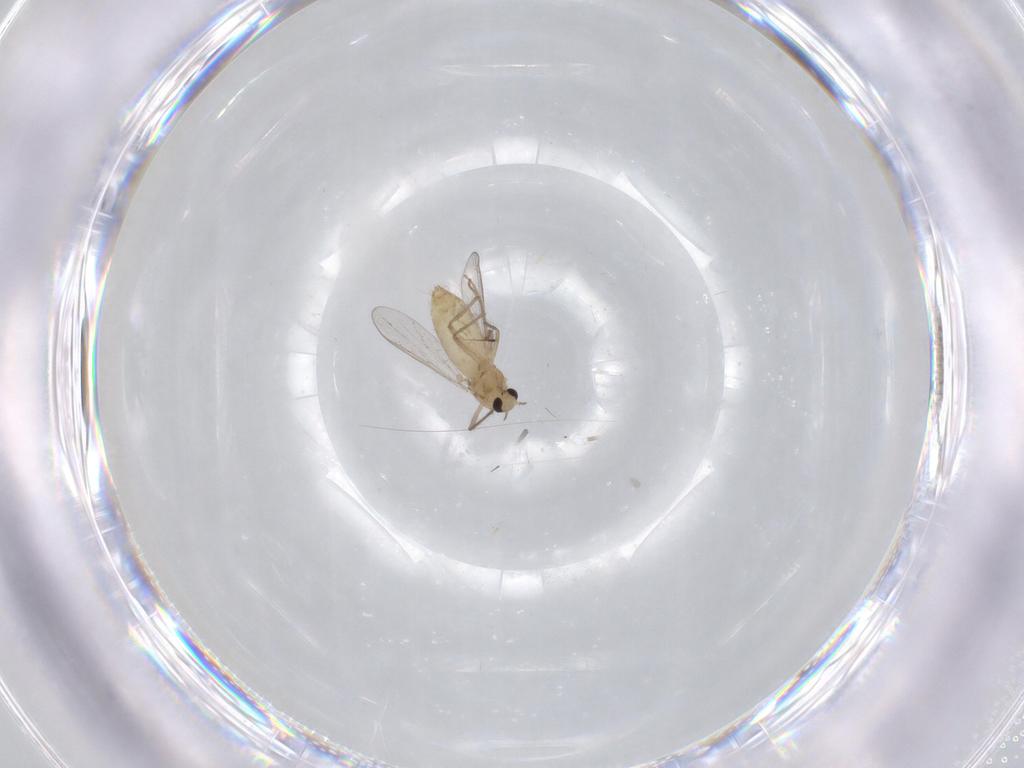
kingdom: Animalia
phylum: Arthropoda
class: Insecta
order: Diptera
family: Chironomidae
